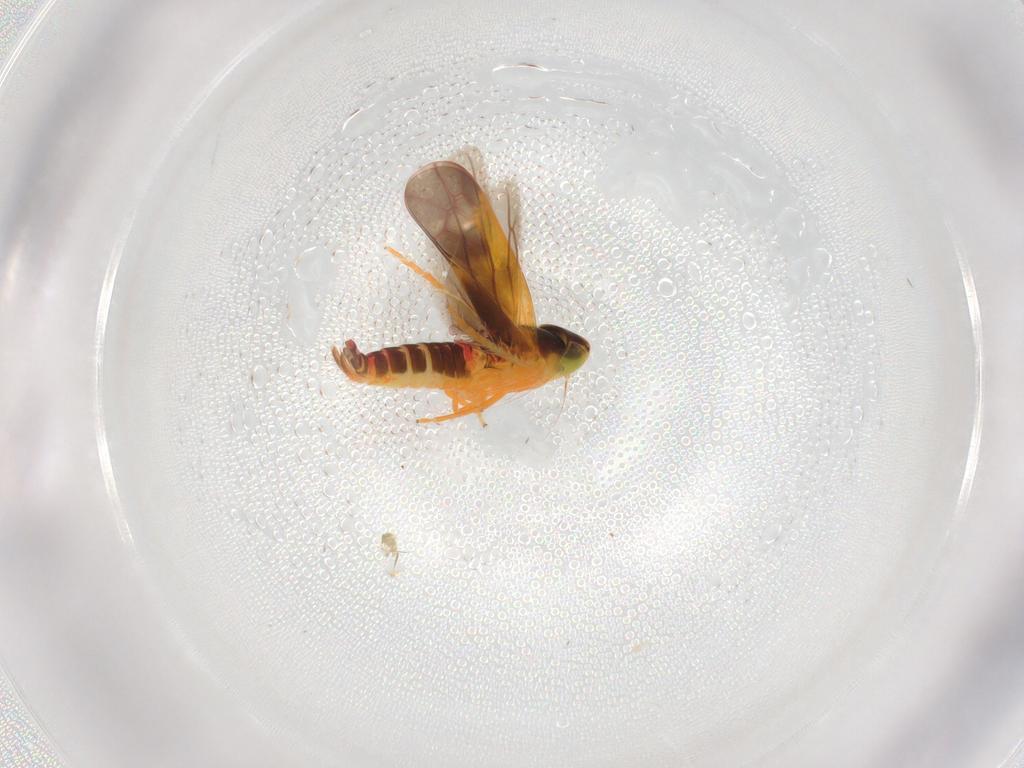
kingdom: Animalia
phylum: Arthropoda
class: Insecta
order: Hemiptera
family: Cicadellidae
